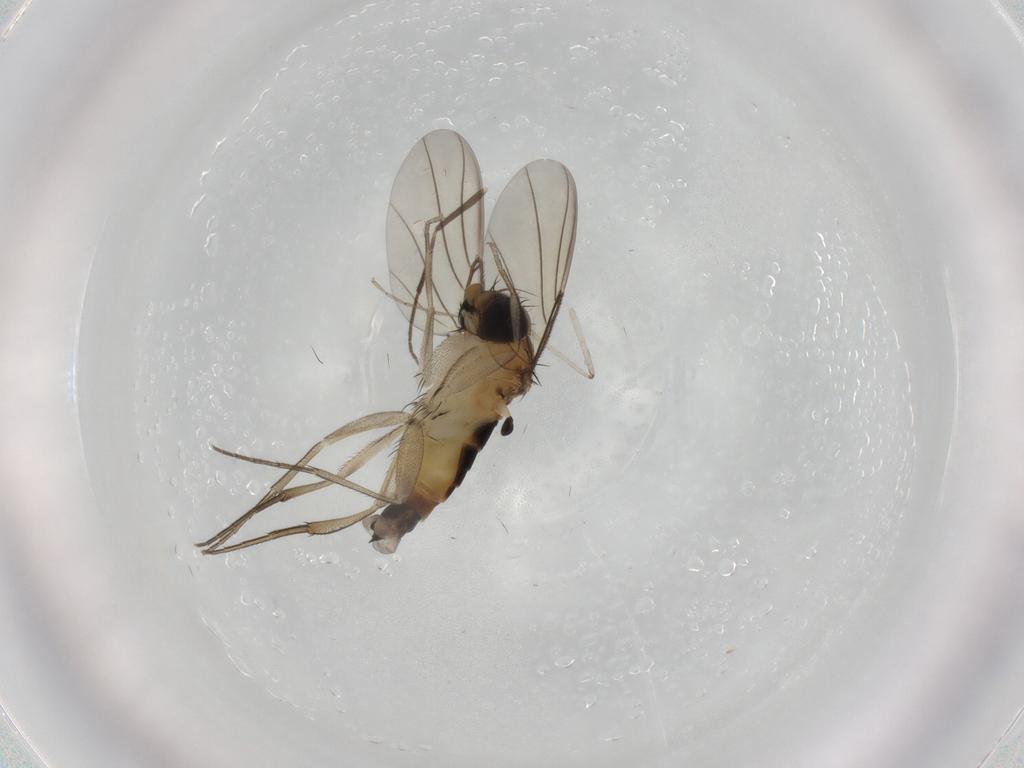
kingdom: Animalia
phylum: Arthropoda
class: Insecta
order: Diptera
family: Phoridae
